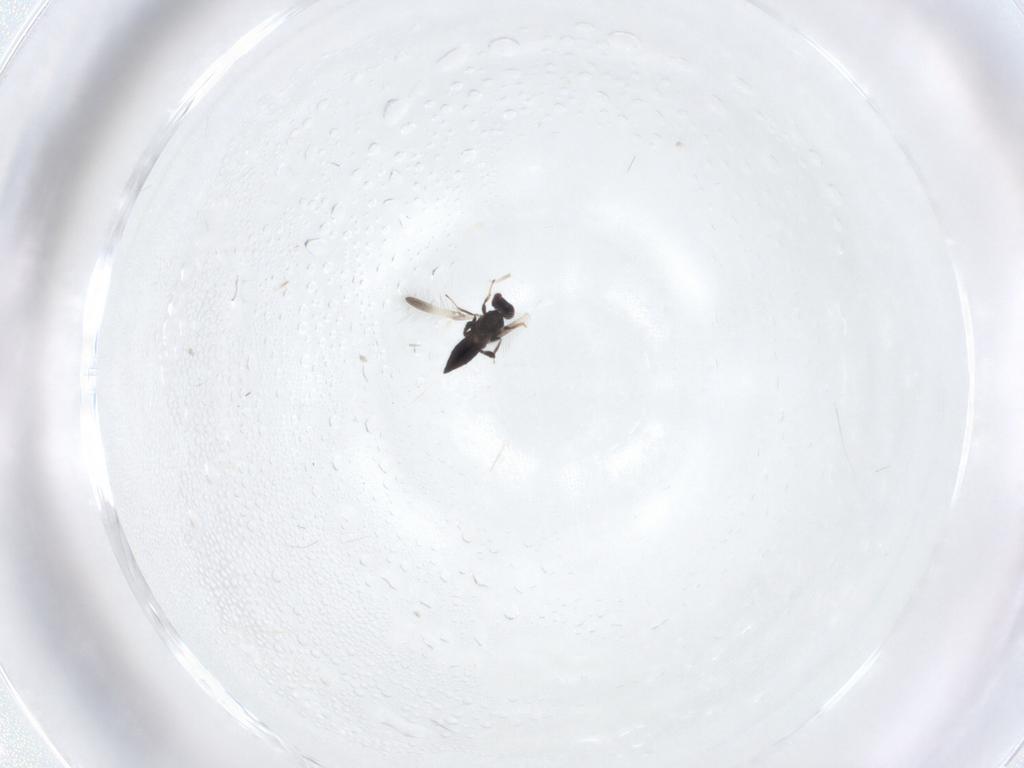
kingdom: Animalia
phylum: Arthropoda
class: Insecta
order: Hymenoptera
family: Mymaridae
